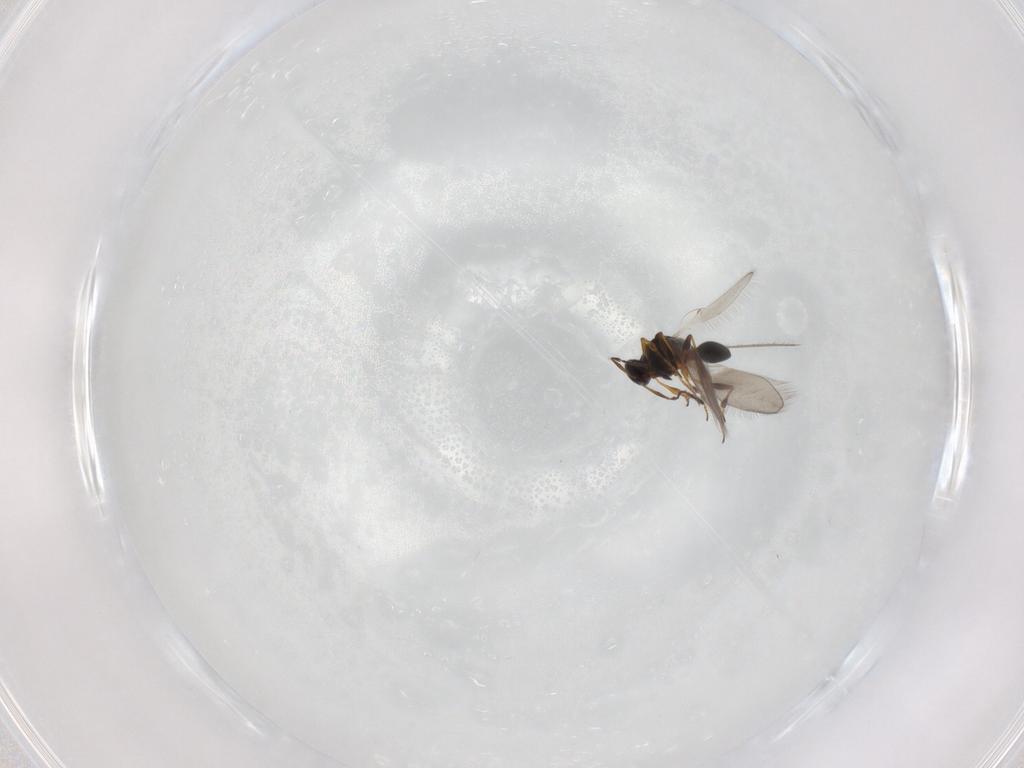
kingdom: Animalia
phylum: Arthropoda
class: Insecta
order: Hymenoptera
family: Platygastridae
